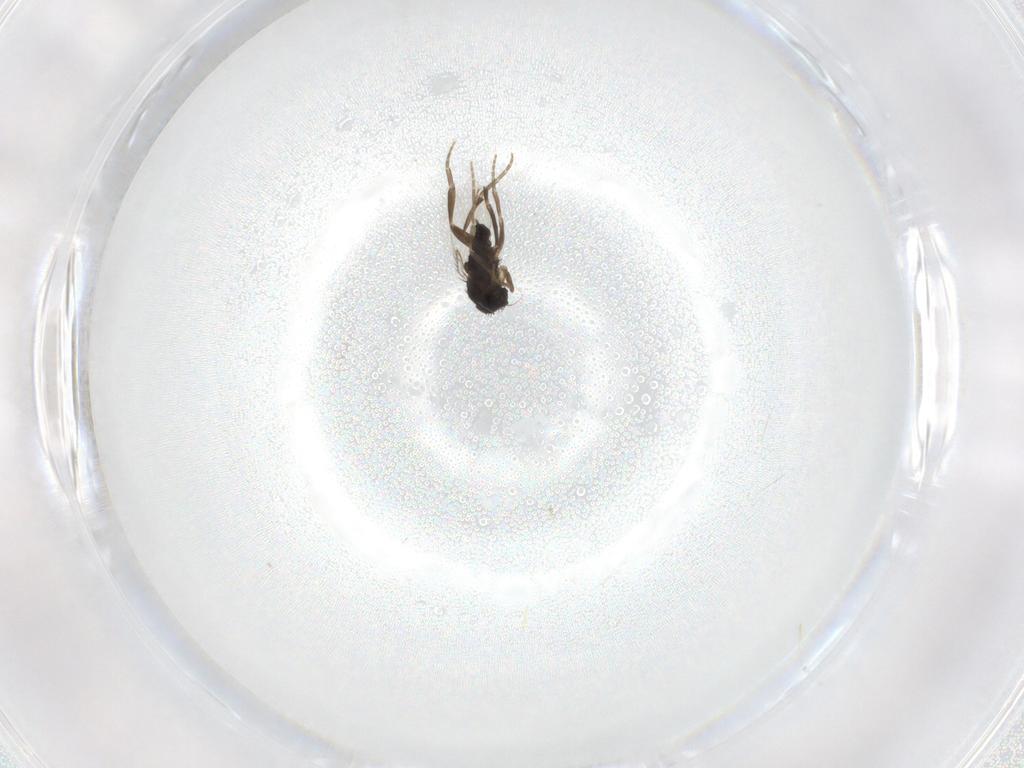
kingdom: Animalia
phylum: Arthropoda
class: Insecta
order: Diptera
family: Phoridae
